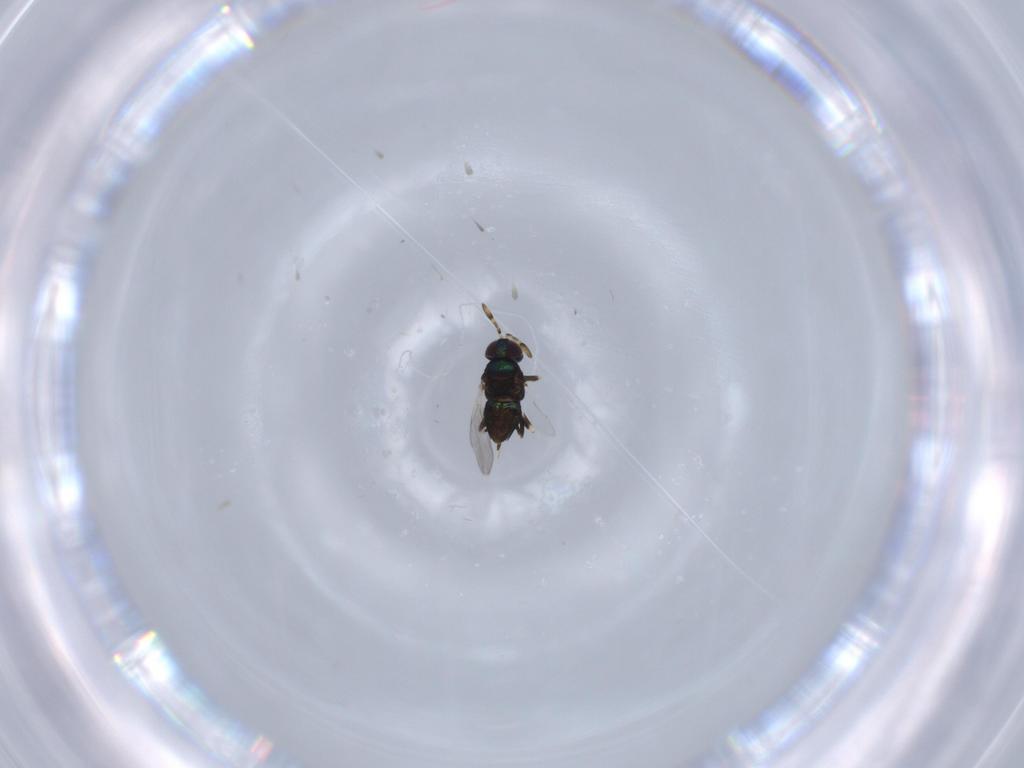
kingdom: Animalia
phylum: Arthropoda
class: Insecta
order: Hymenoptera
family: Encyrtidae
